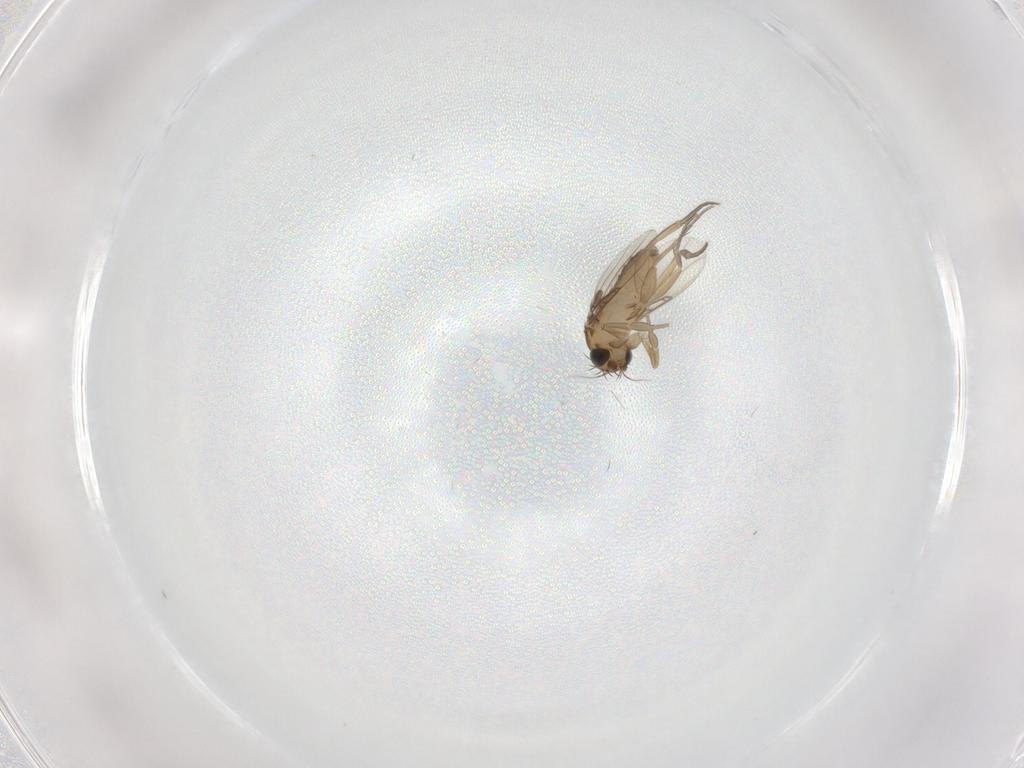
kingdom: Animalia
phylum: Arthropoda
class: Insecta
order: Diptera
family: Phoridae
